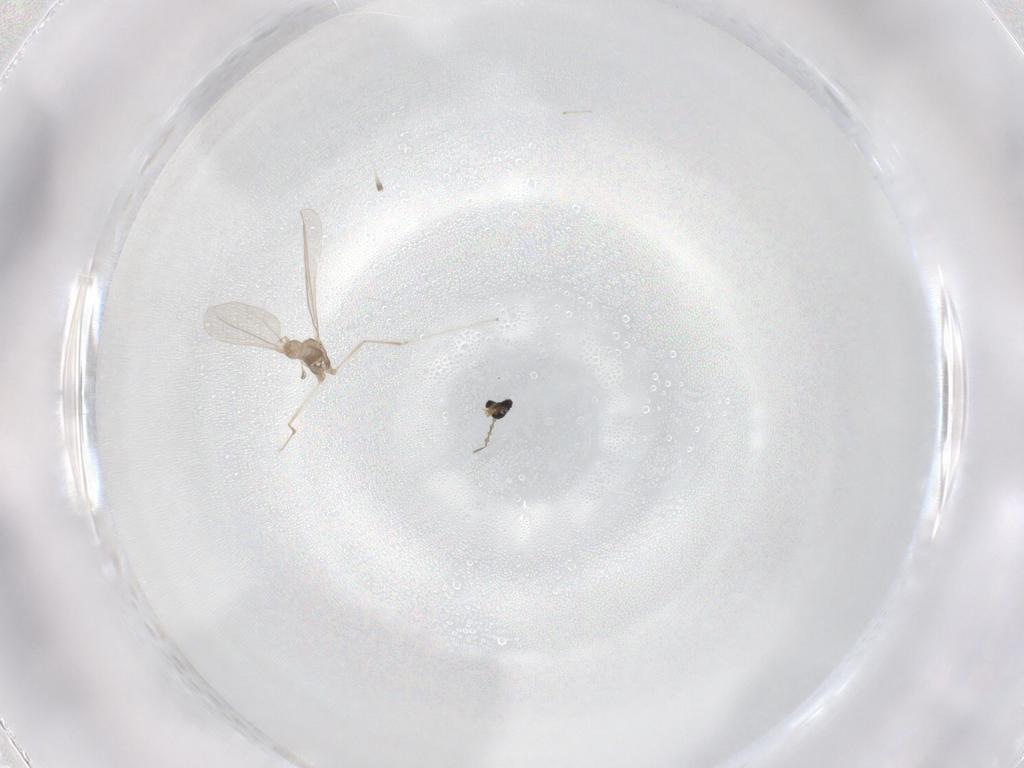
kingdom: Animalia
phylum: Arthropoda
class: Insecta
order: Diptera
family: Cecidomyiidae
